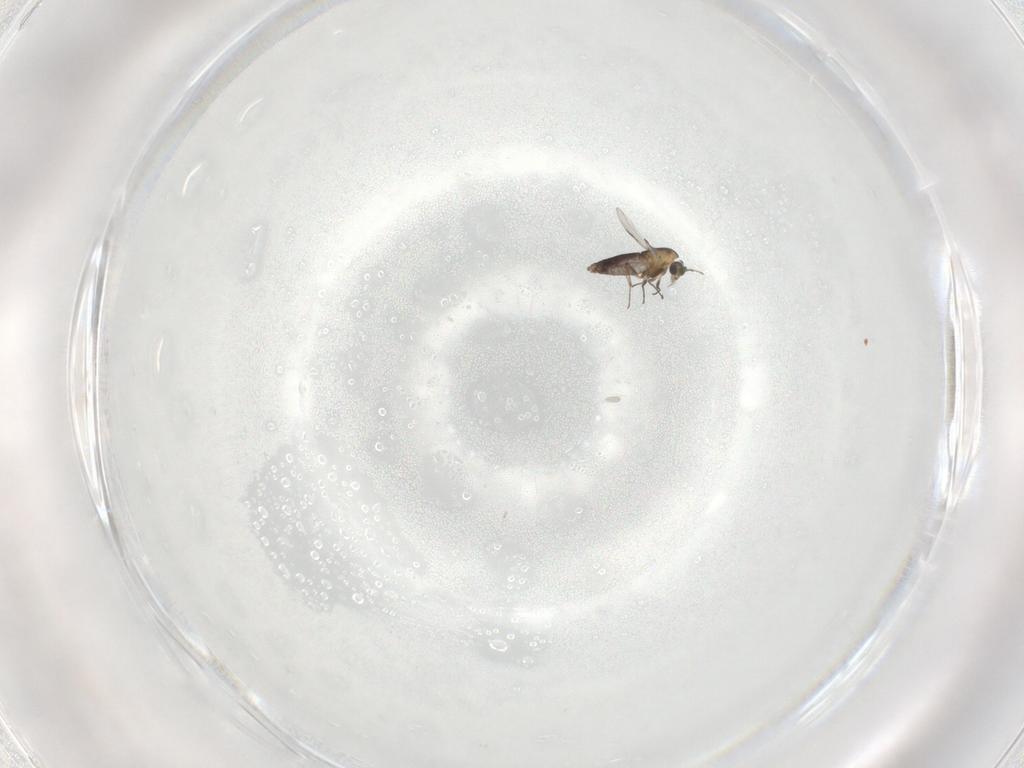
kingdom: Animalia
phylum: Arthropoda
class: Insecta
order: Diptera
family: Chironomidae
